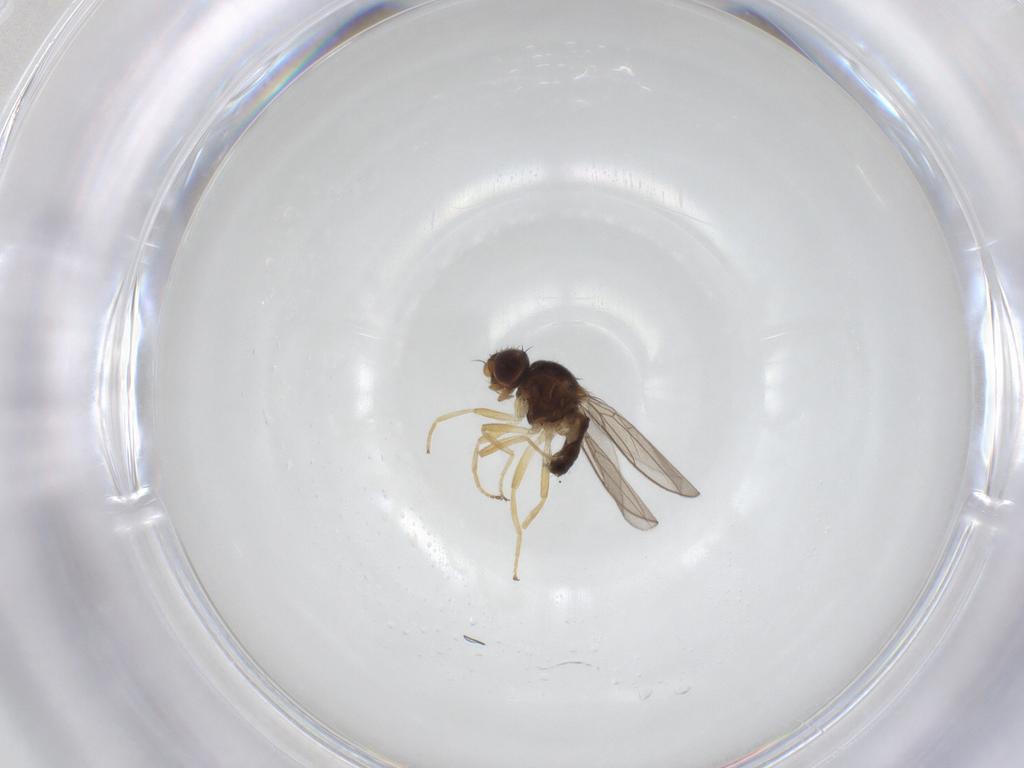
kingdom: Animalia
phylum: Arthropoda
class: Insecta
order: Diptera
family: Chloropidae
